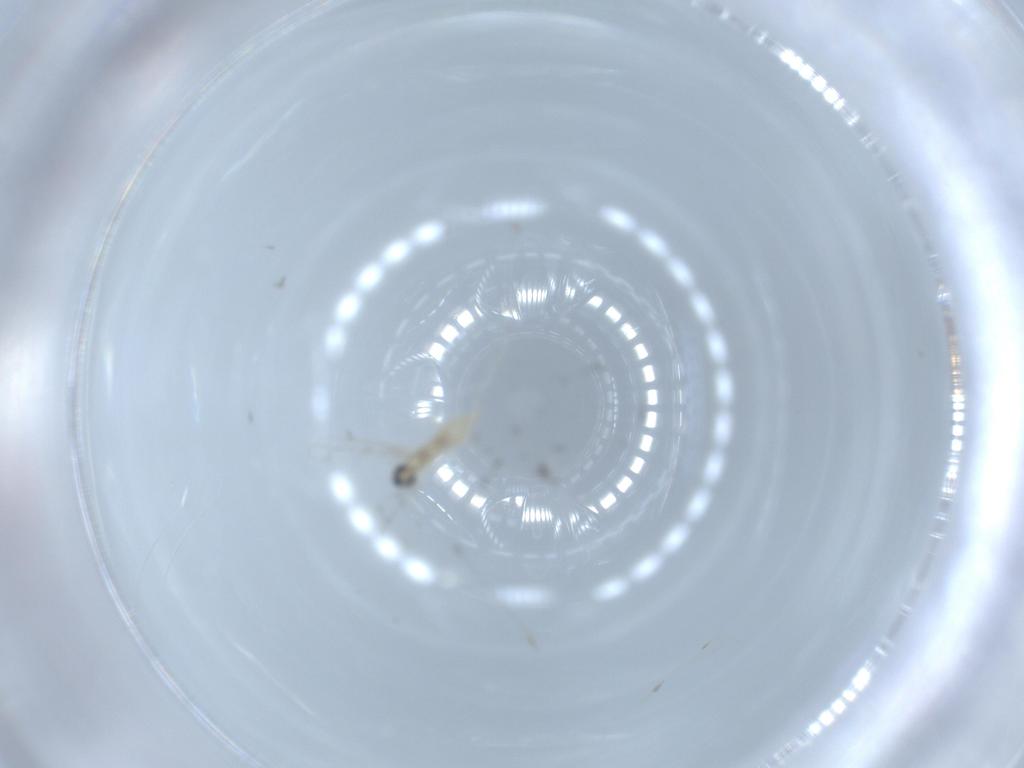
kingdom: Animalia
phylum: Arthropoda
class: Insecta
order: Diptera
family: Cecidomyiidae
